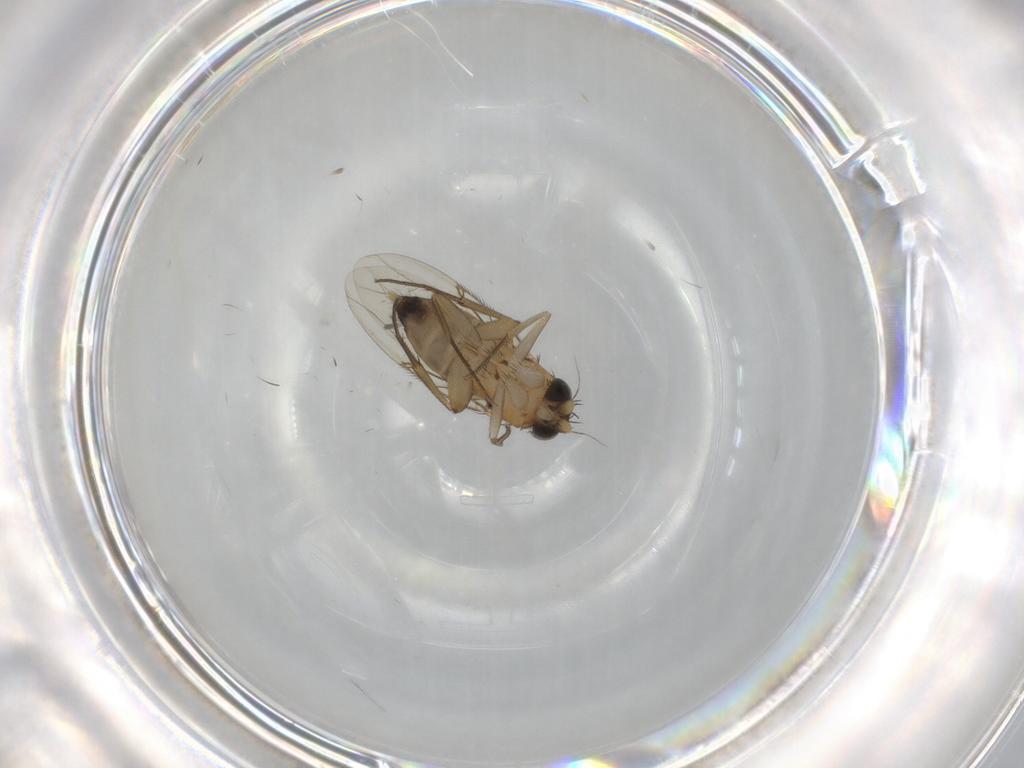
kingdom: Animalia
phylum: Arthropoda
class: Insecta
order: Diptera
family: Phoridae
